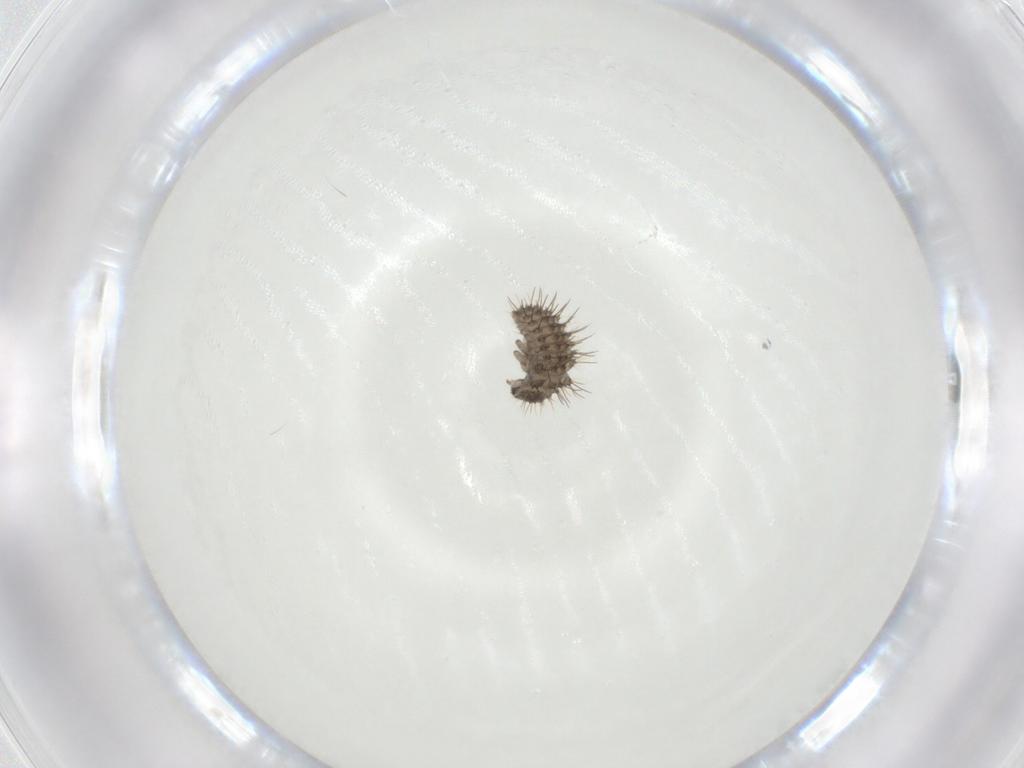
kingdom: Animalia
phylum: Arthropoda
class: Insecta
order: Coleoptera
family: Coccinellidae
